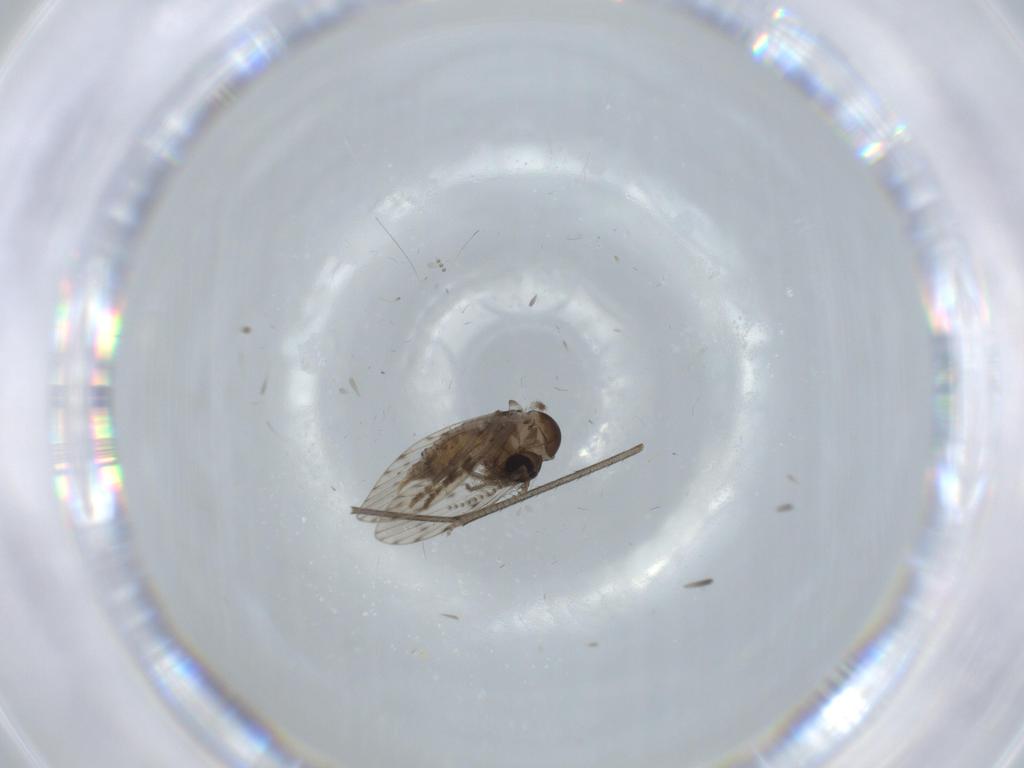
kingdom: Animalia
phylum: Arthropoda
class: Insecta
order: Diptera
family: Psychodidae
